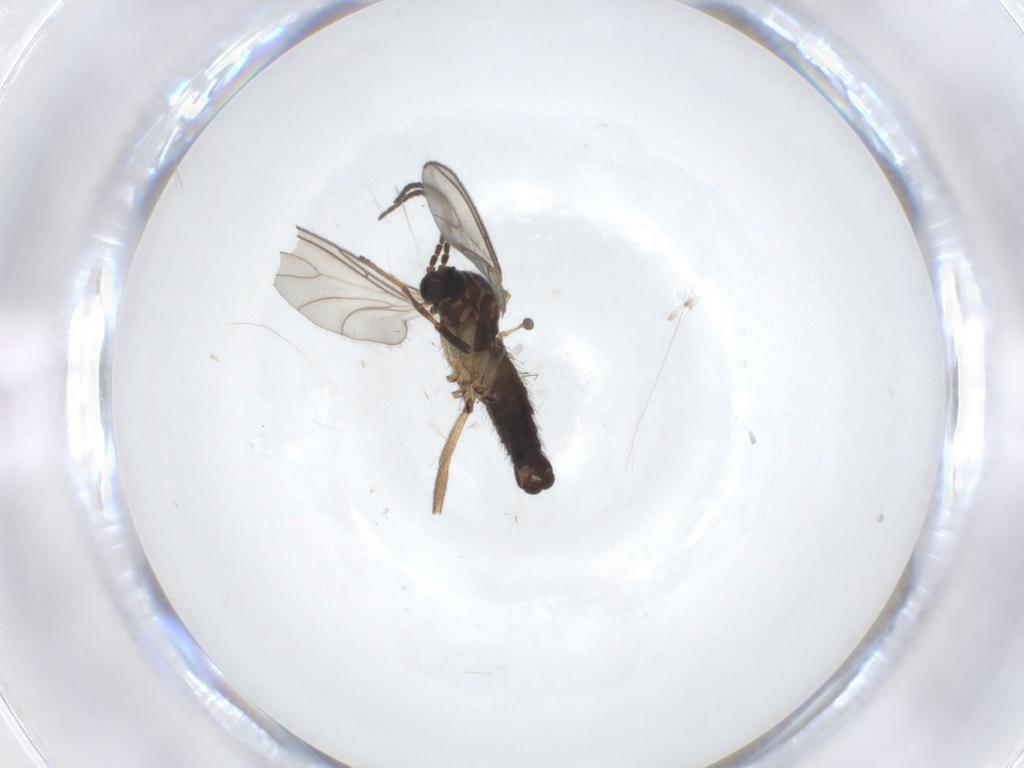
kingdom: Animalia
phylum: Arthropoda
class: Insecta
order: Diptera
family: Sciaridae
